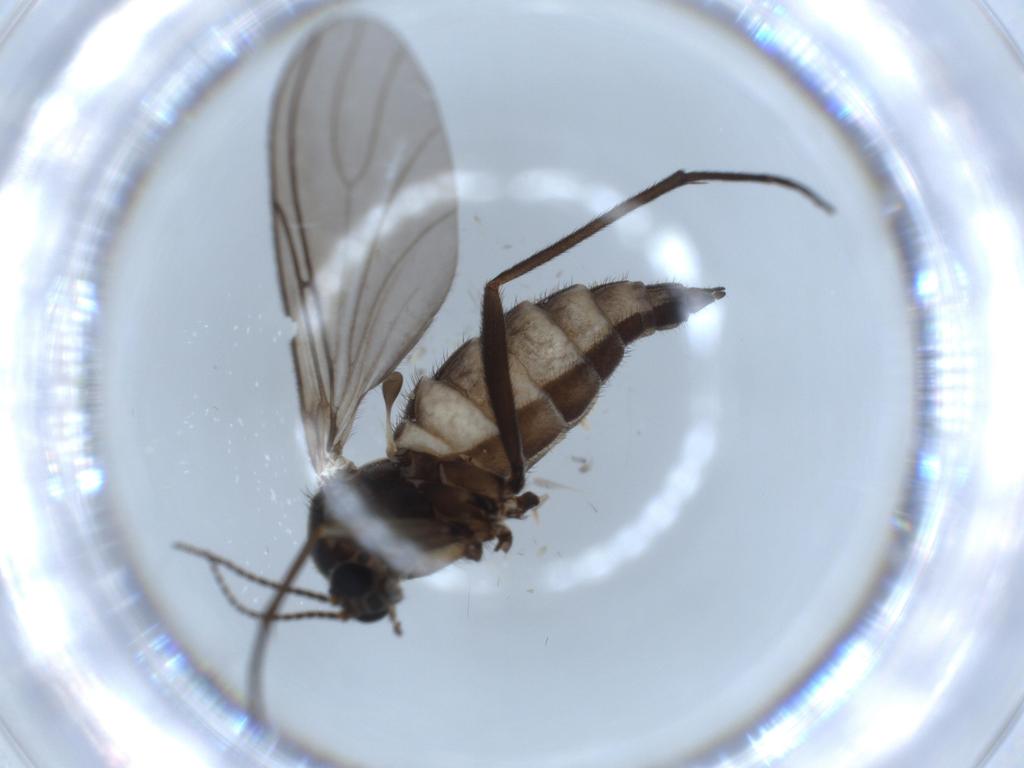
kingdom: Animalia
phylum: Arthropoda
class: Insecta
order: Diptera
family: Sciaridae
